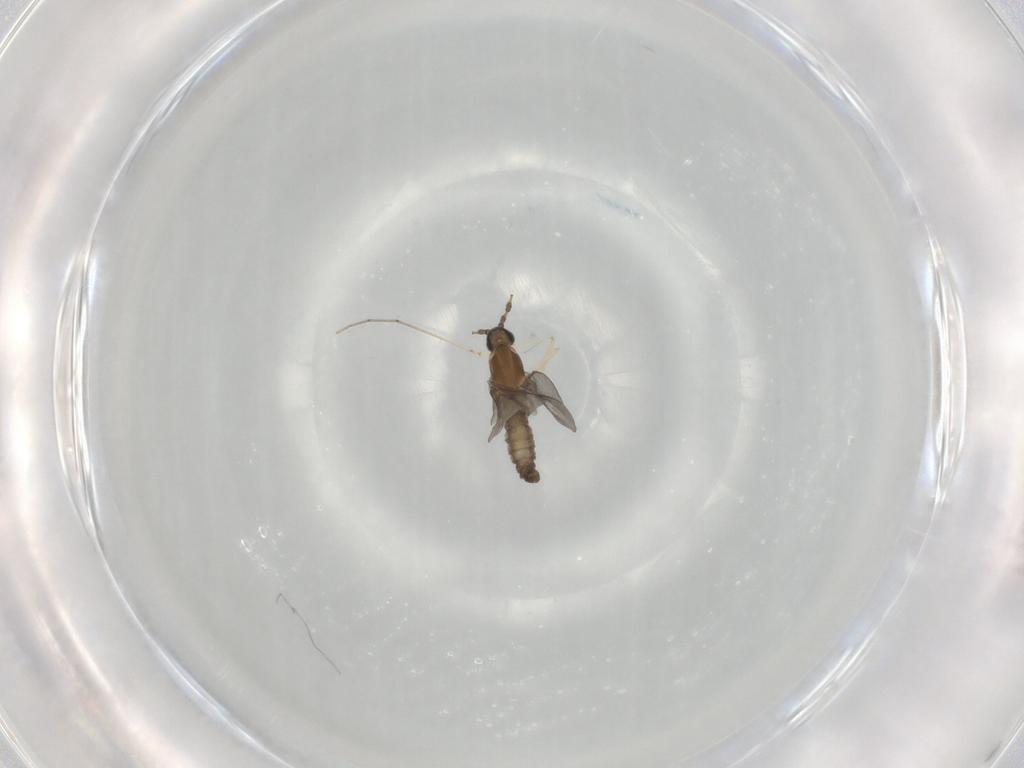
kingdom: Animalia
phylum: Arthropoda
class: Insecta
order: Diptera
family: Cecidomyiidae
